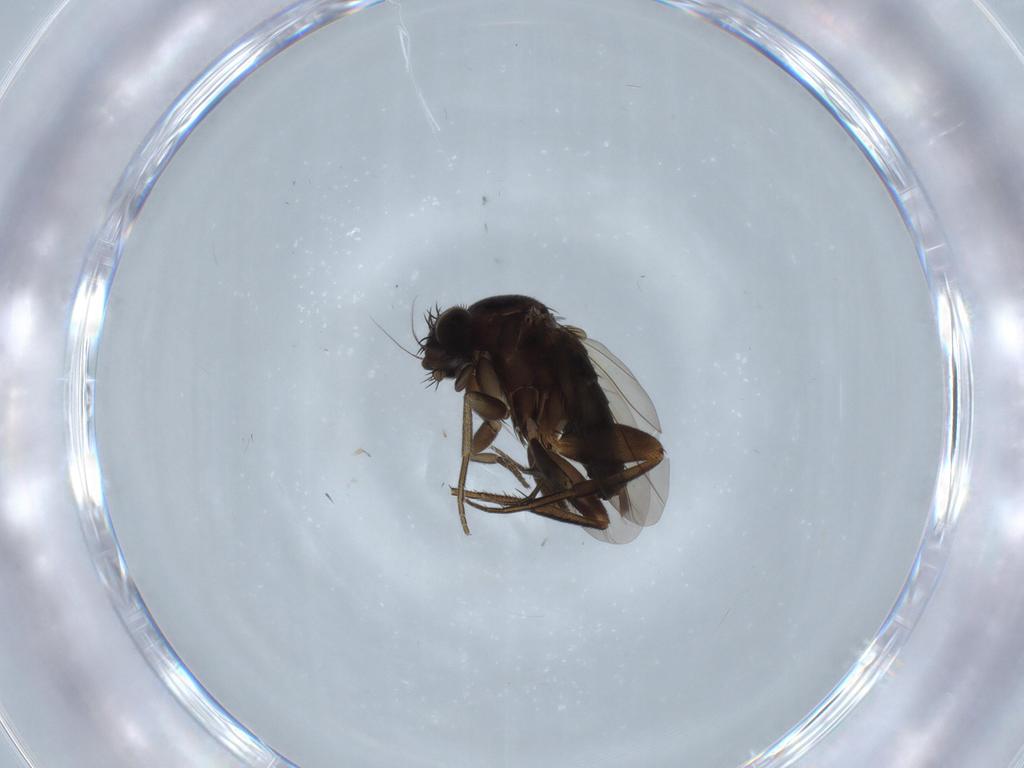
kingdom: Animalia
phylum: Arthropoda
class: Insecta
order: Diptera
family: Phoridae
